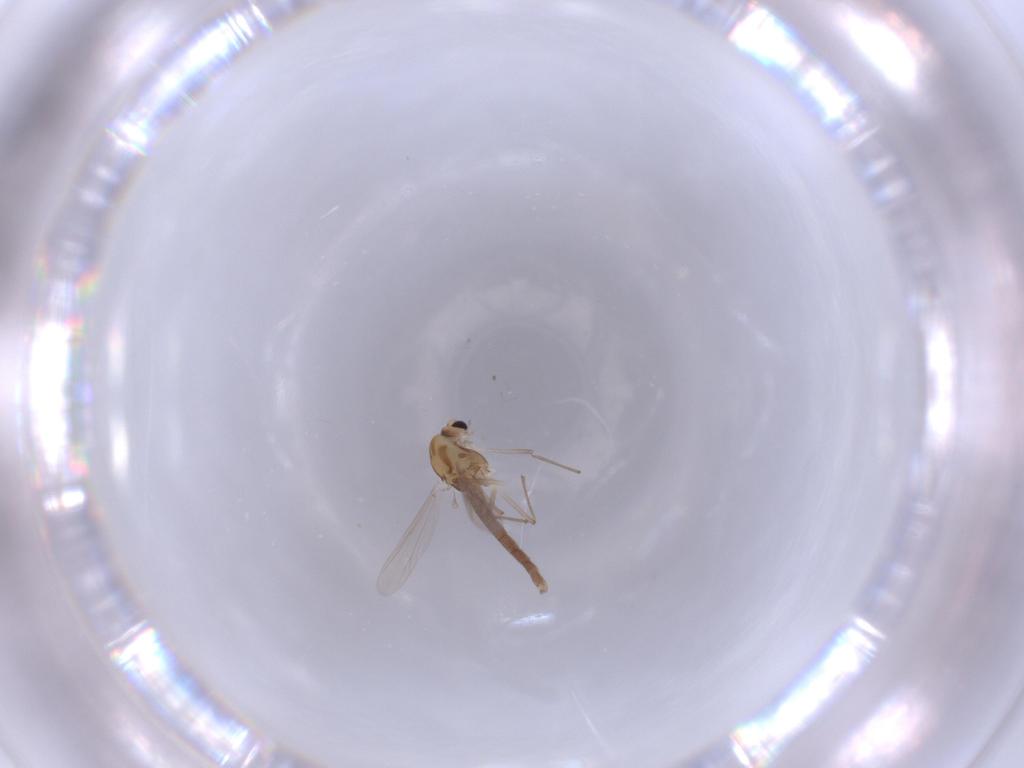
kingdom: Animalia
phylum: Arthropoda
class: Insecta
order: Diptera
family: Chironomidae
